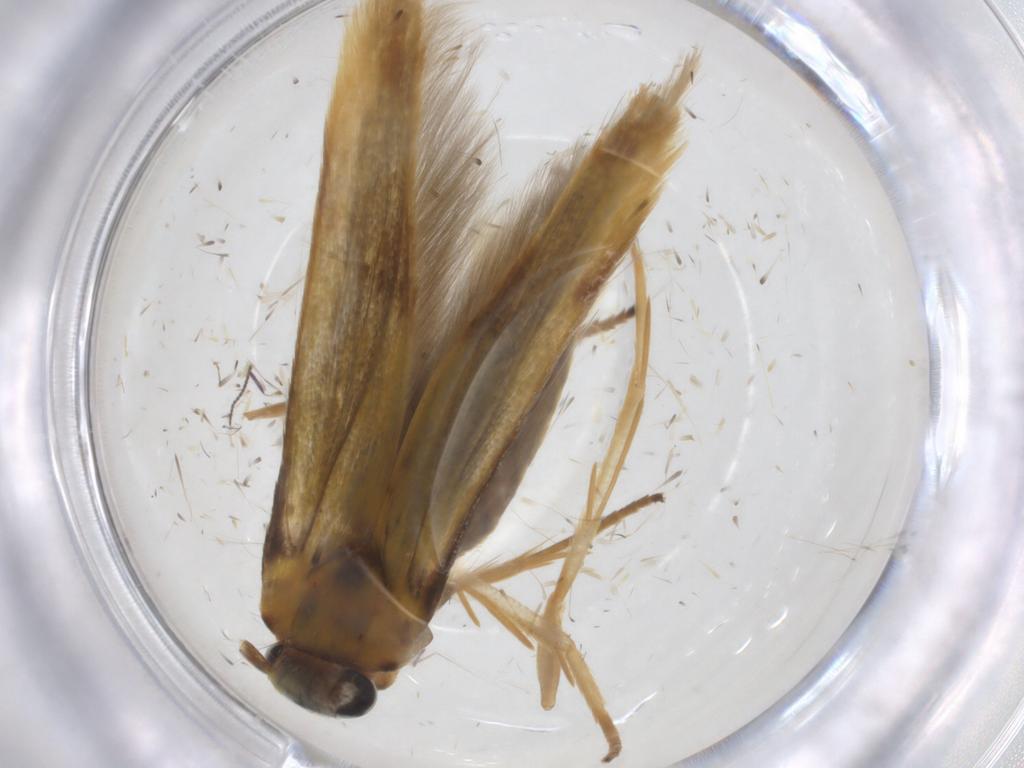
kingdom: Animalia
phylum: Arthropoda
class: Insecta
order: Lepidoptera
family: Stathmopodidae
